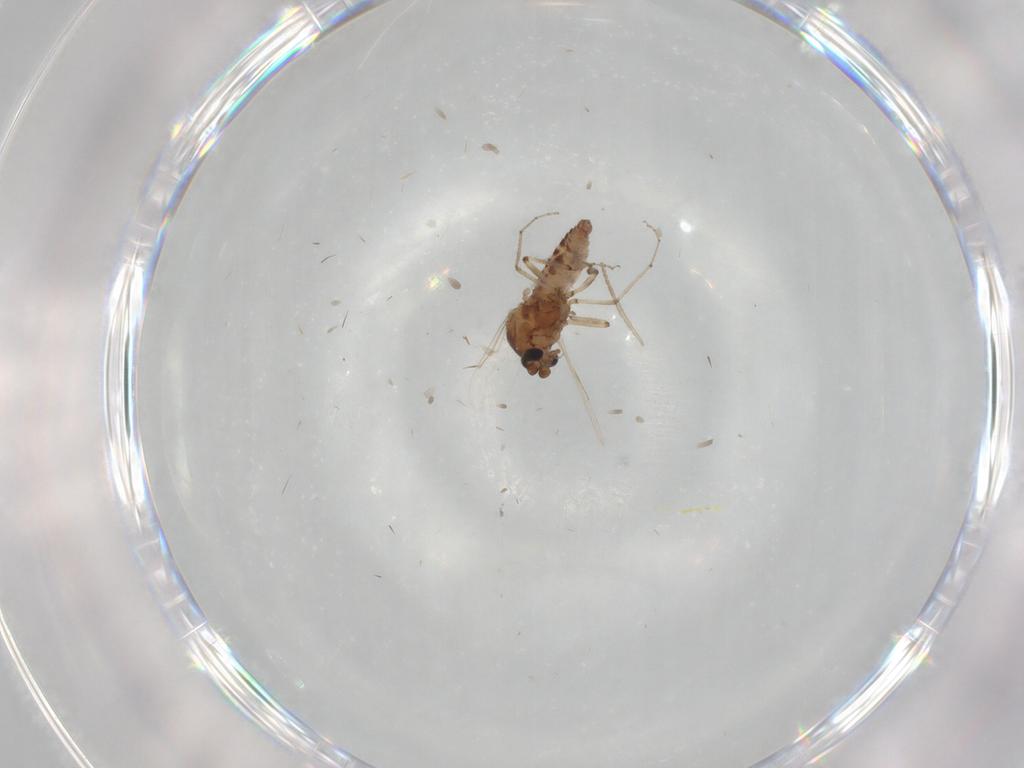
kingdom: Animalia
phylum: Arthropoda
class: Insecta
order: Diptera
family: Ceratopogonidae
